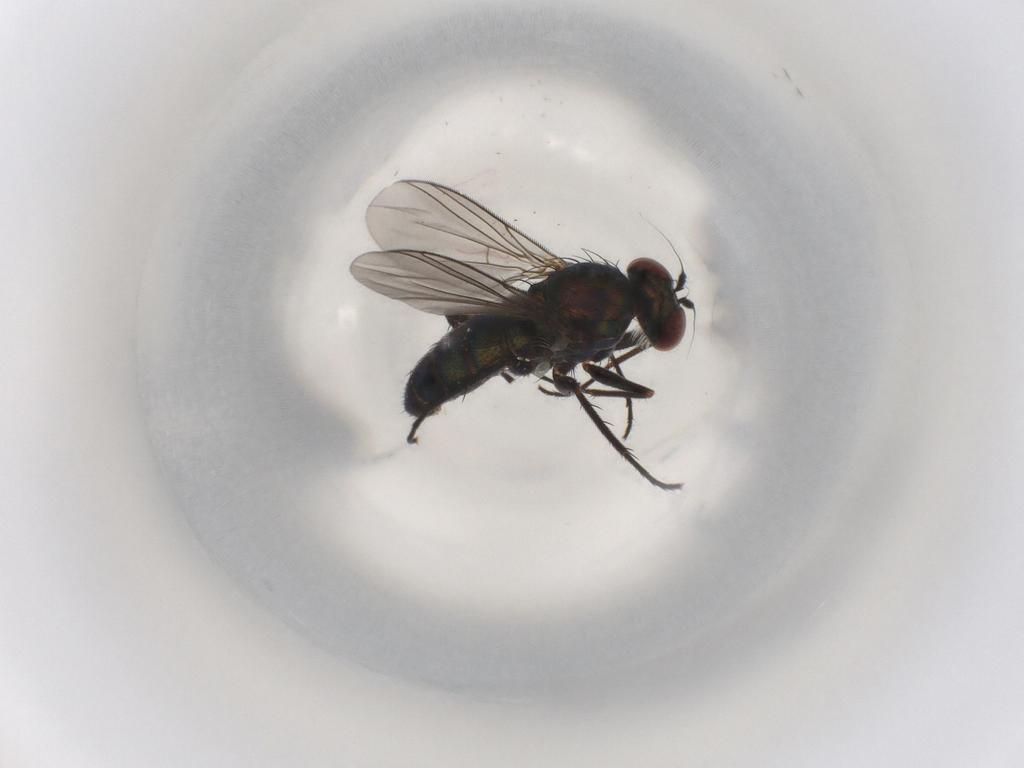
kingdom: Animalia
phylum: Arthropoda
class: Insecta
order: Diptera
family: Dolichopodidae
